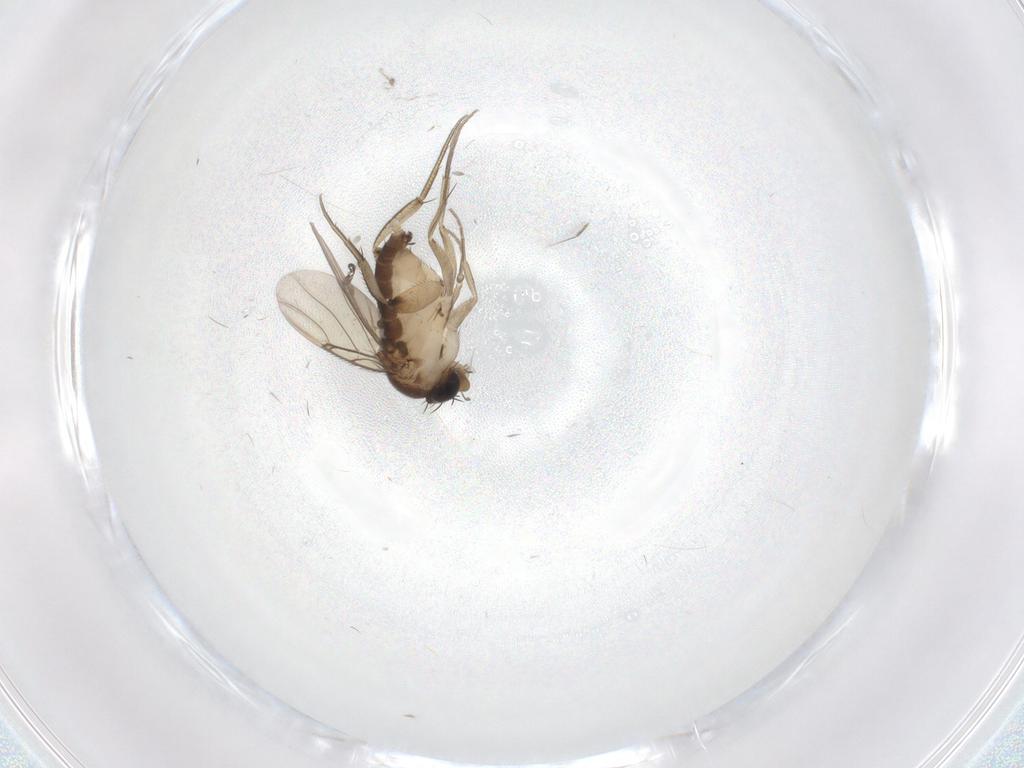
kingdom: Animalia
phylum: Arthropoda
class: Insecta
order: Diptera
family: Phoridae
